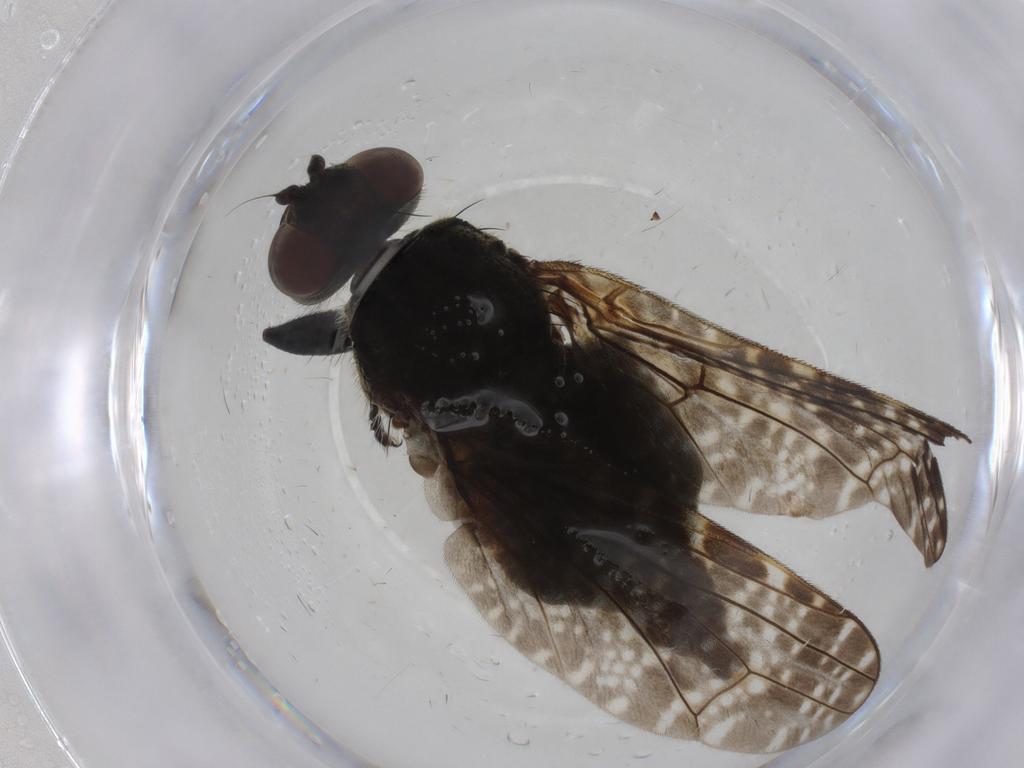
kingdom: Animalia
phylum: Arthropoda
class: Insecta
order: Diptera
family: Platystomatidae
